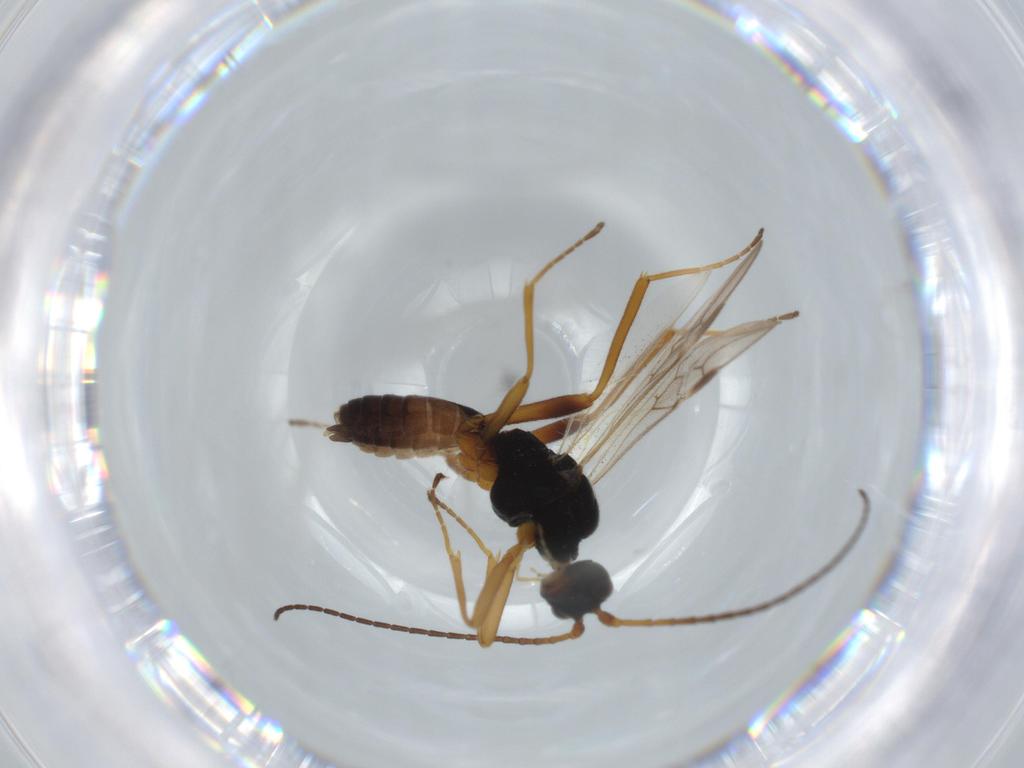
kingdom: Animalia
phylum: Arthropoda
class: Insecta
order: Hymenoptera
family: Braconidae
